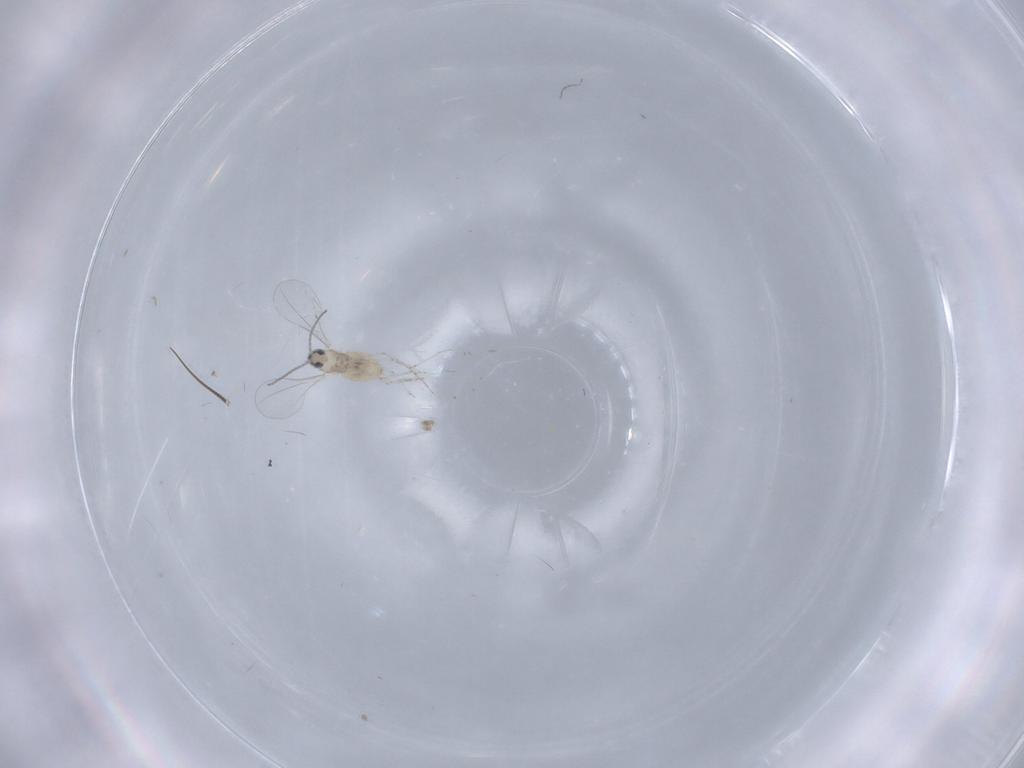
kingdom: Animalia
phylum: Arthropoda
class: Insecta
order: Diptera
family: Cecidomyiidae
